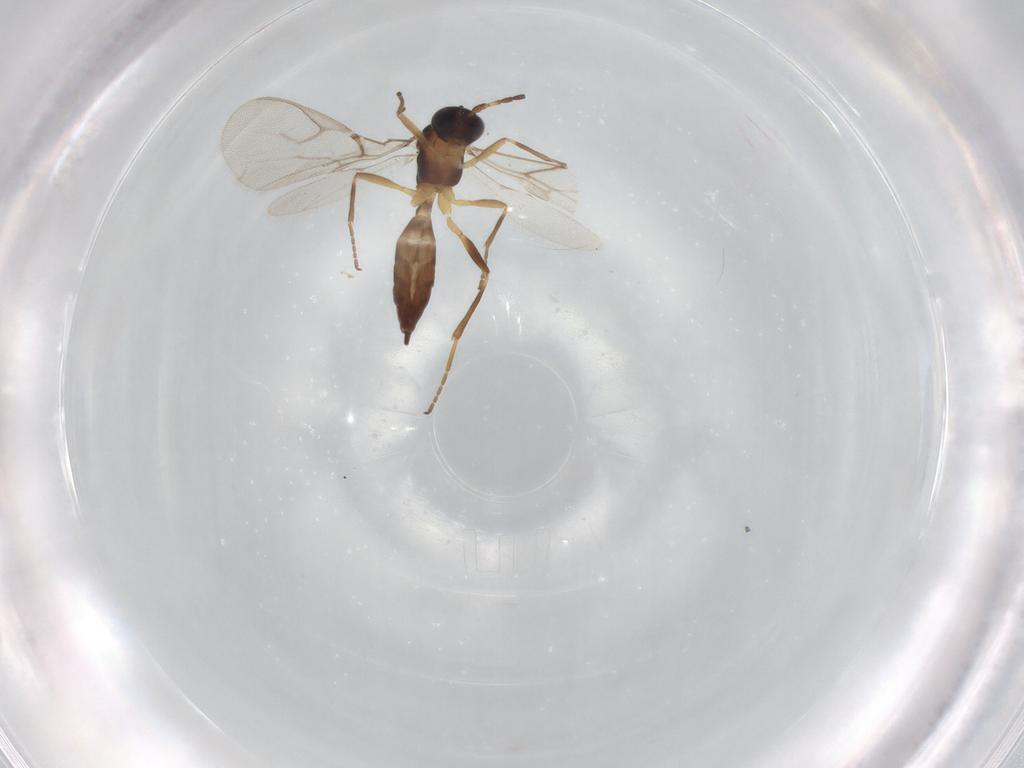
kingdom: Animalia
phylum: Arthropoda
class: Insecta
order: Hymenoptera
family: Braconidae
